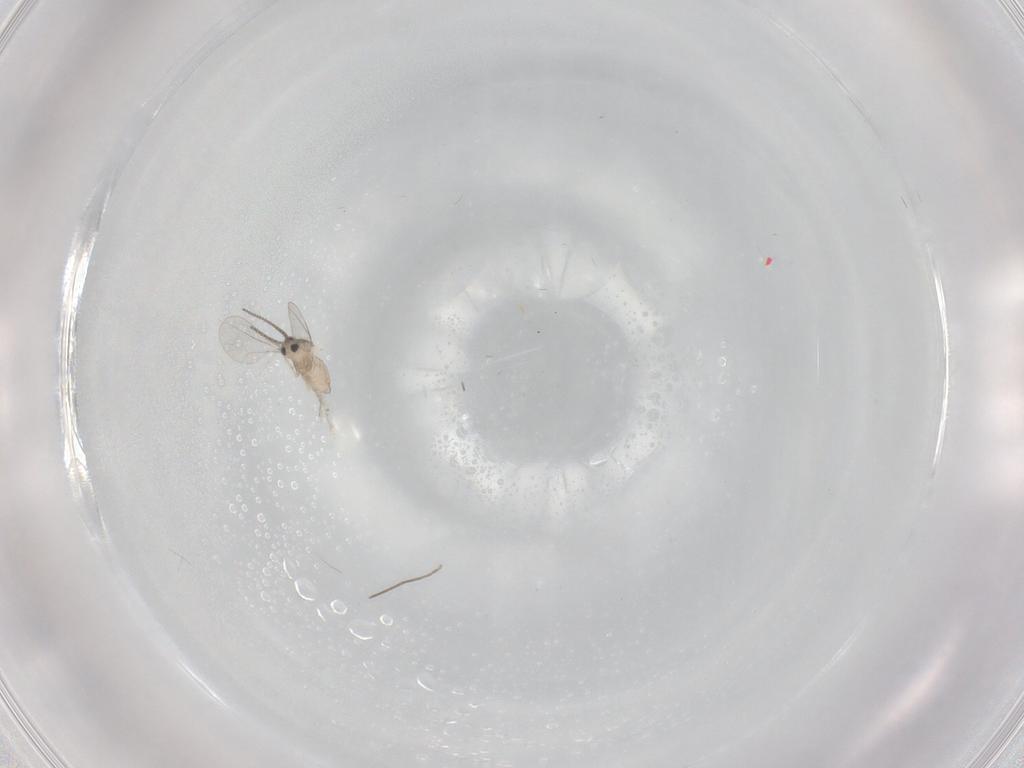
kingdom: Animalia
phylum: Arthropoda
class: Insecta
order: Diptera
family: Cecidomyiidae
